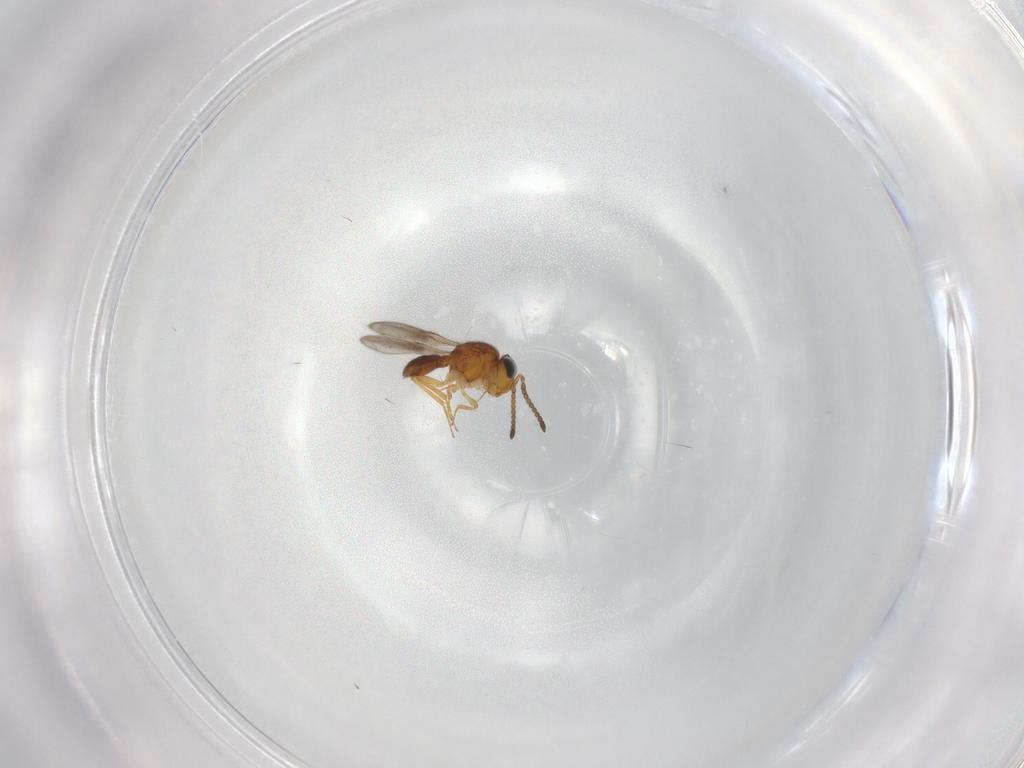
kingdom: Animalia
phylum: Arthropoda
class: Insecta
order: Hymenoptera
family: Scelionidae
